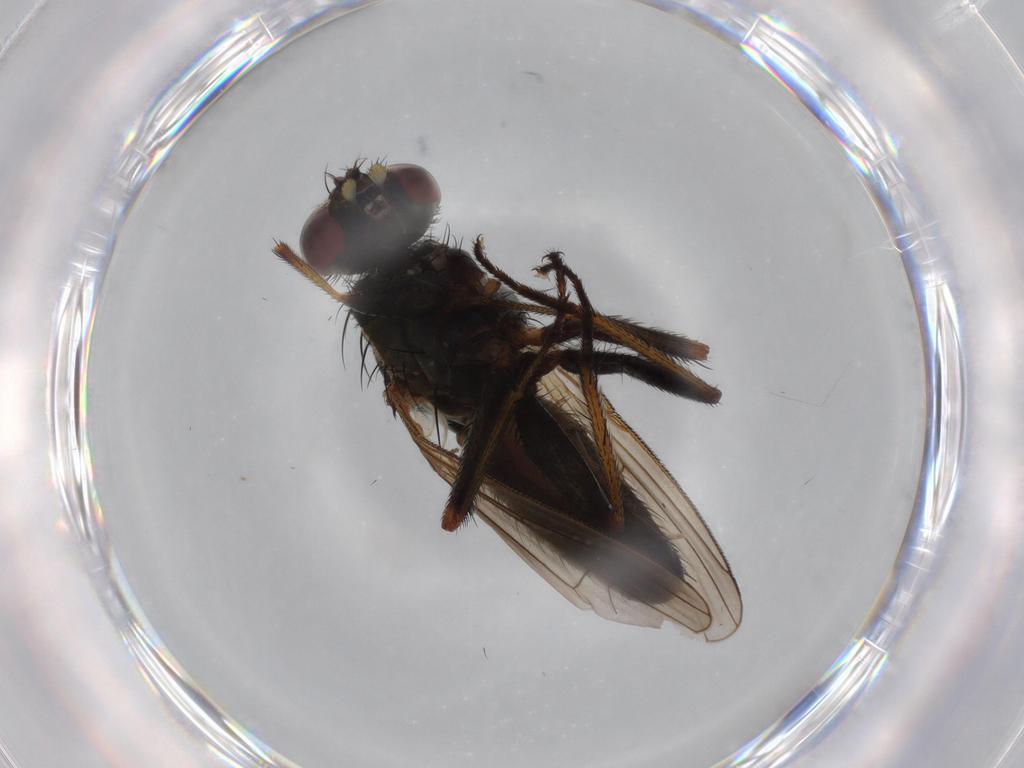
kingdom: Animalia
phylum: Arthropoda
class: Insecta
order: Diptera
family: Muscidae
